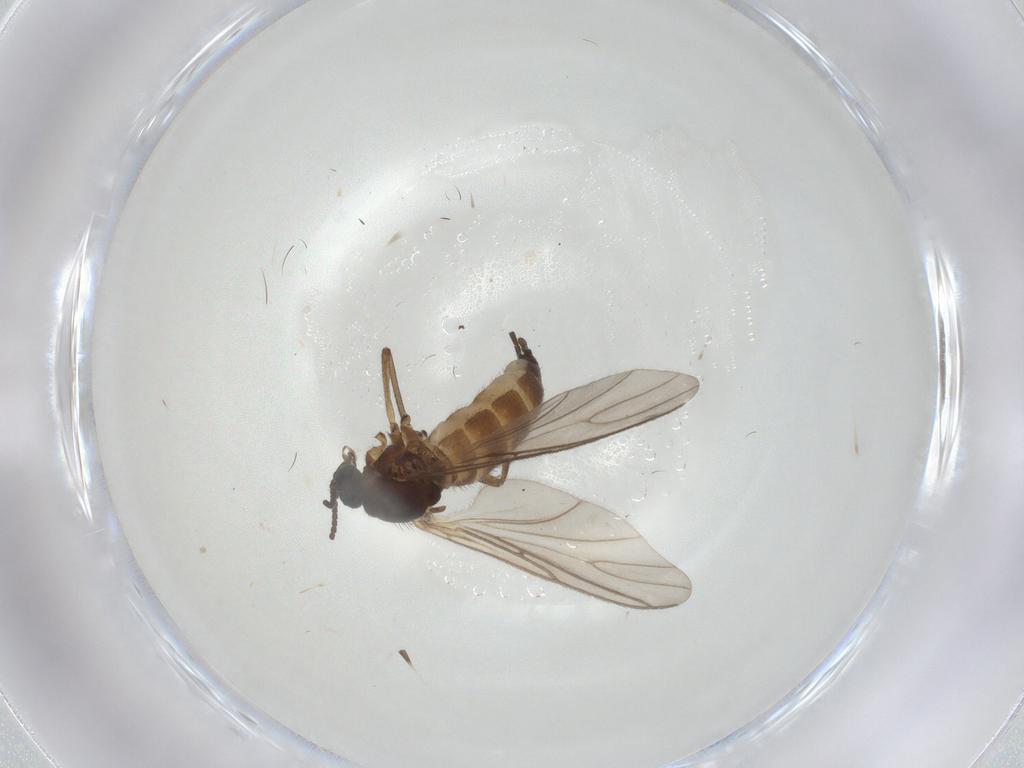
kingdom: Animalia
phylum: Arthropoda
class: Insecta
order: Diptera
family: Sciaridae
